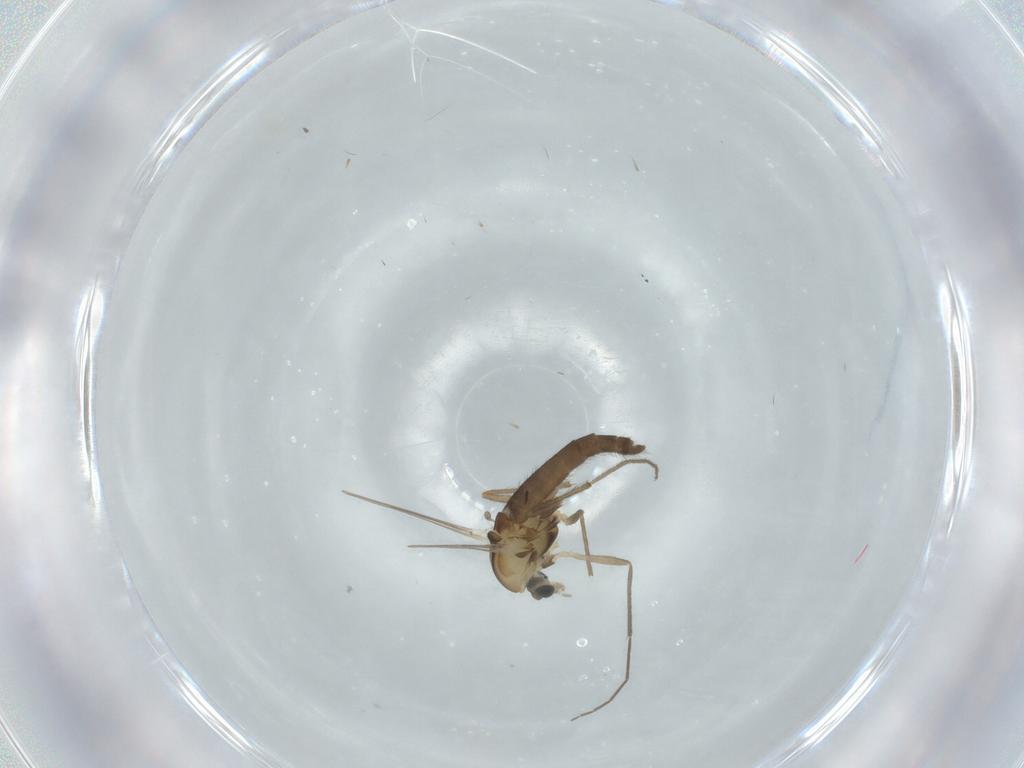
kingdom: Animalia
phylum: Arthropoda
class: Insecta
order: Diptera
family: Chironomidae
